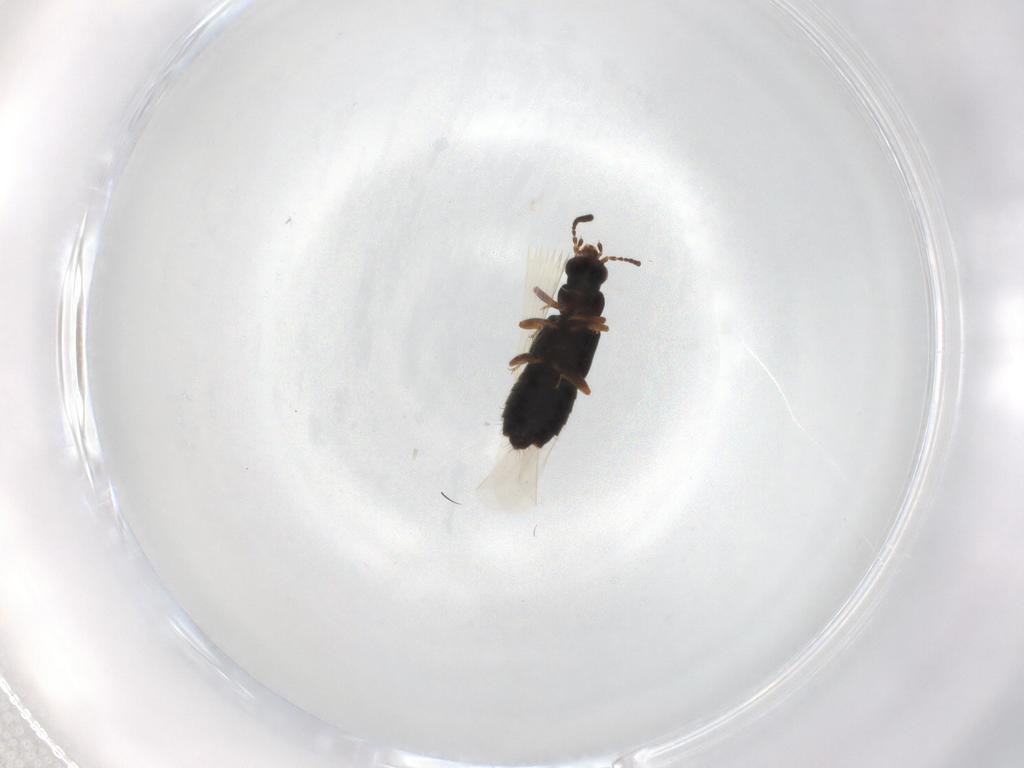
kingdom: Animalia
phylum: Arthropoda
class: Insecta
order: Coleoptera
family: Staphylinidae
